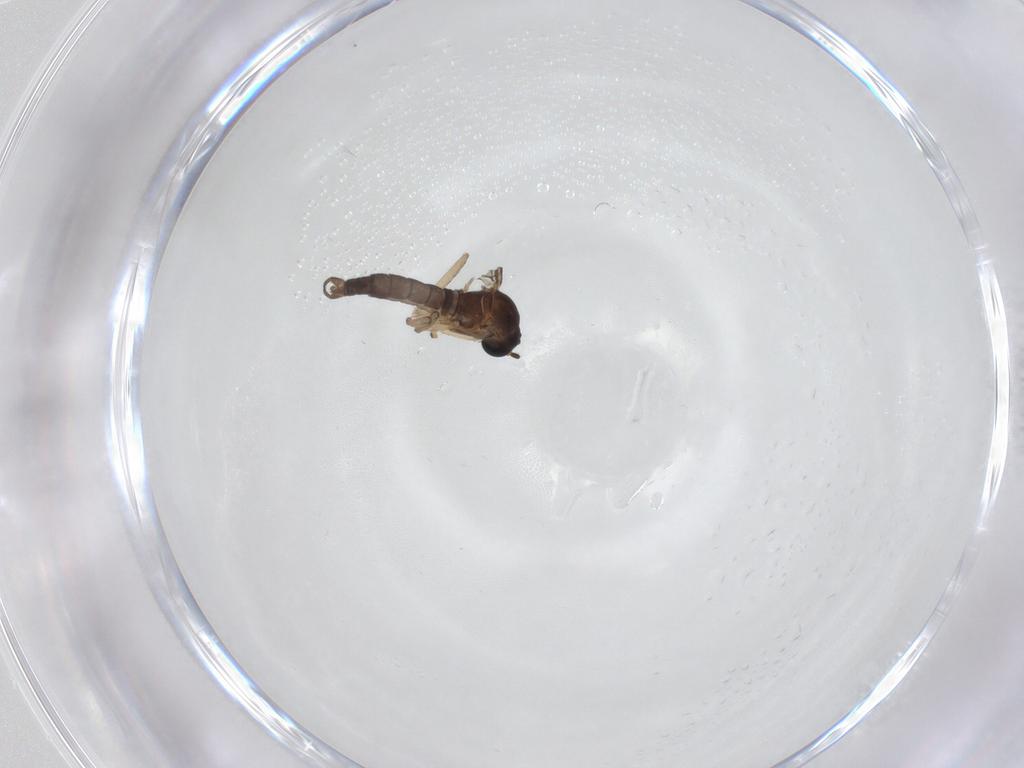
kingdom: Animalia
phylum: Arthropoda
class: Insecta
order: Diptera
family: Sciaridae
